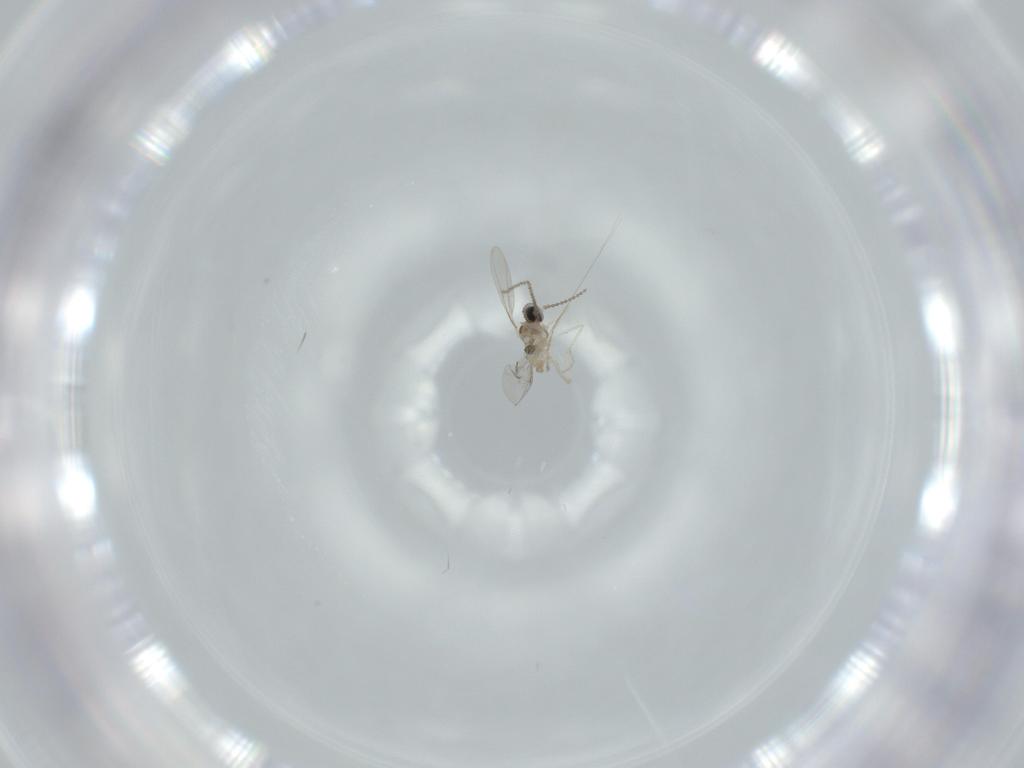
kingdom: Animalia
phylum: Arthropoda
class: Insecta
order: Diptera
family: Cecidomyiidae
